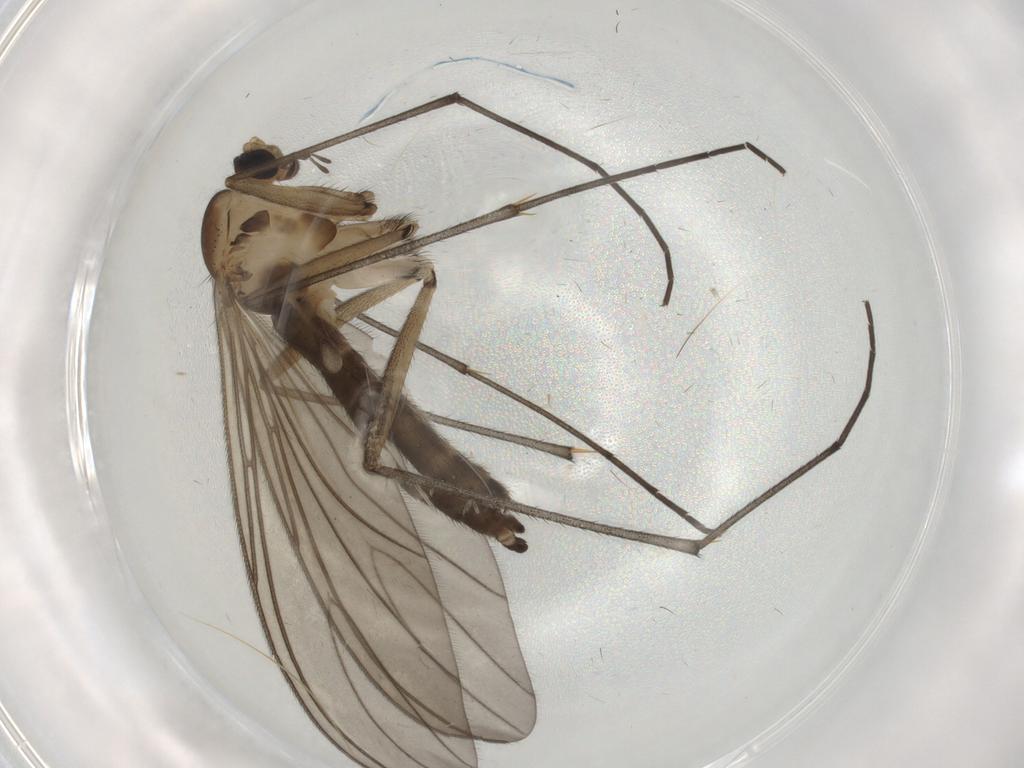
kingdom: Animalia
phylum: Arthropoda
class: Insecta
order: Diptera
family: Sciaridae
